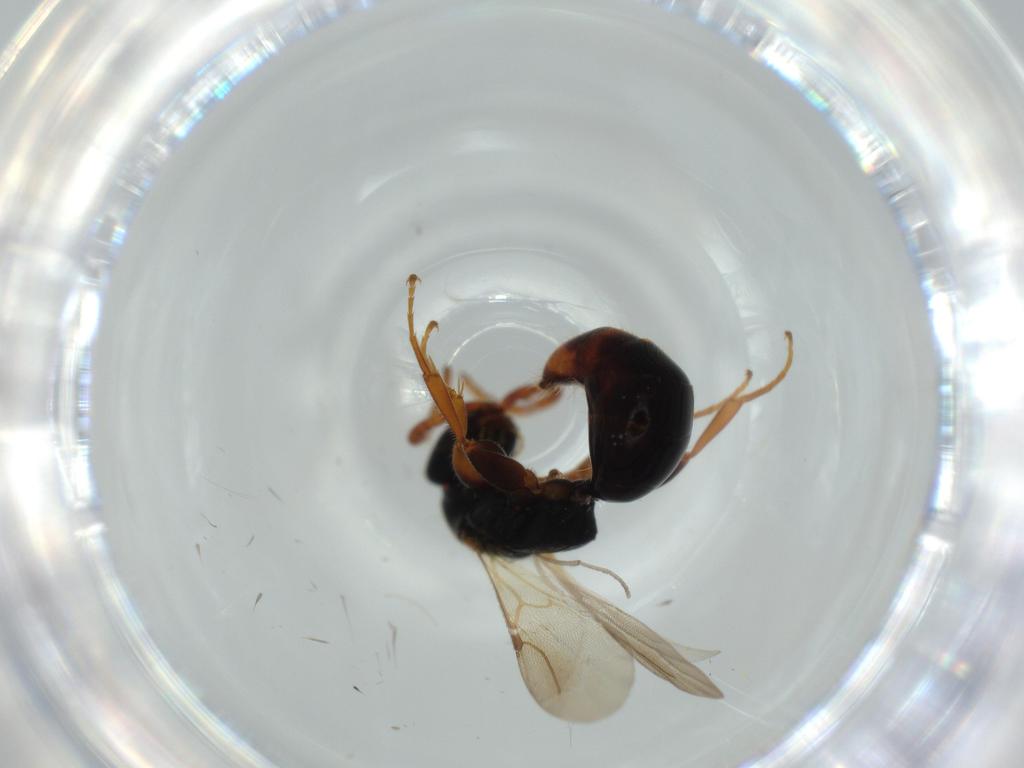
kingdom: Animalia
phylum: Arthropoda
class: Insecta
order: Hymenoptera
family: Bethylidae
